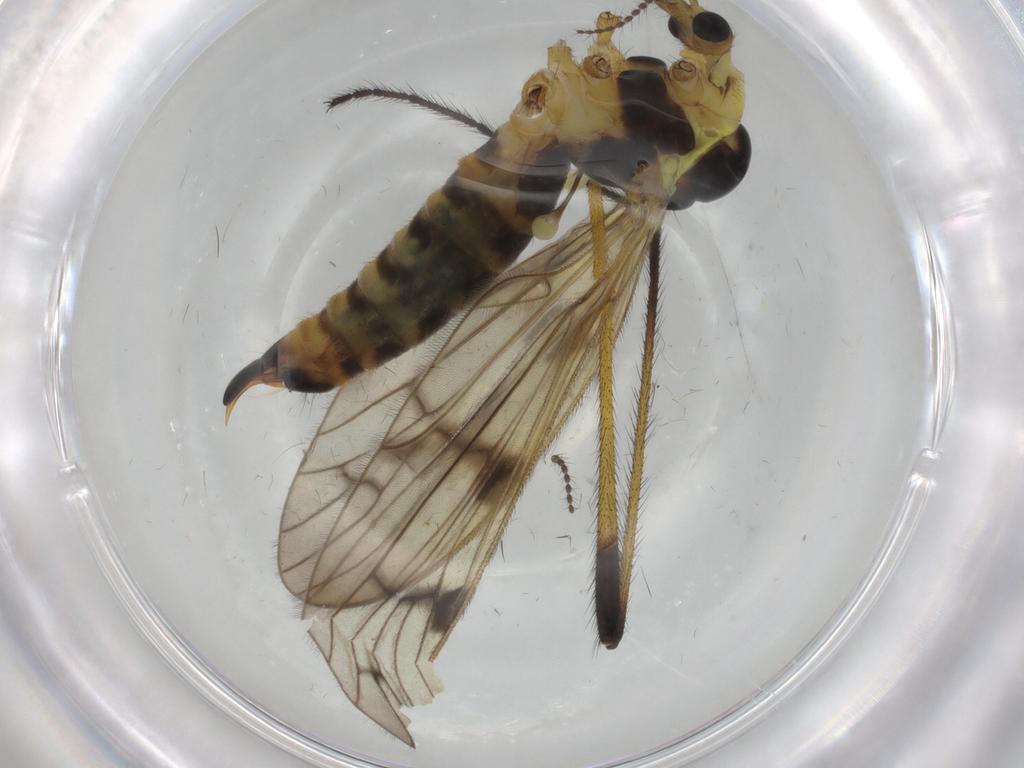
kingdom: Animalia
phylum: Arthropoda
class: Insecta
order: Diptera
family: Limoniidae
